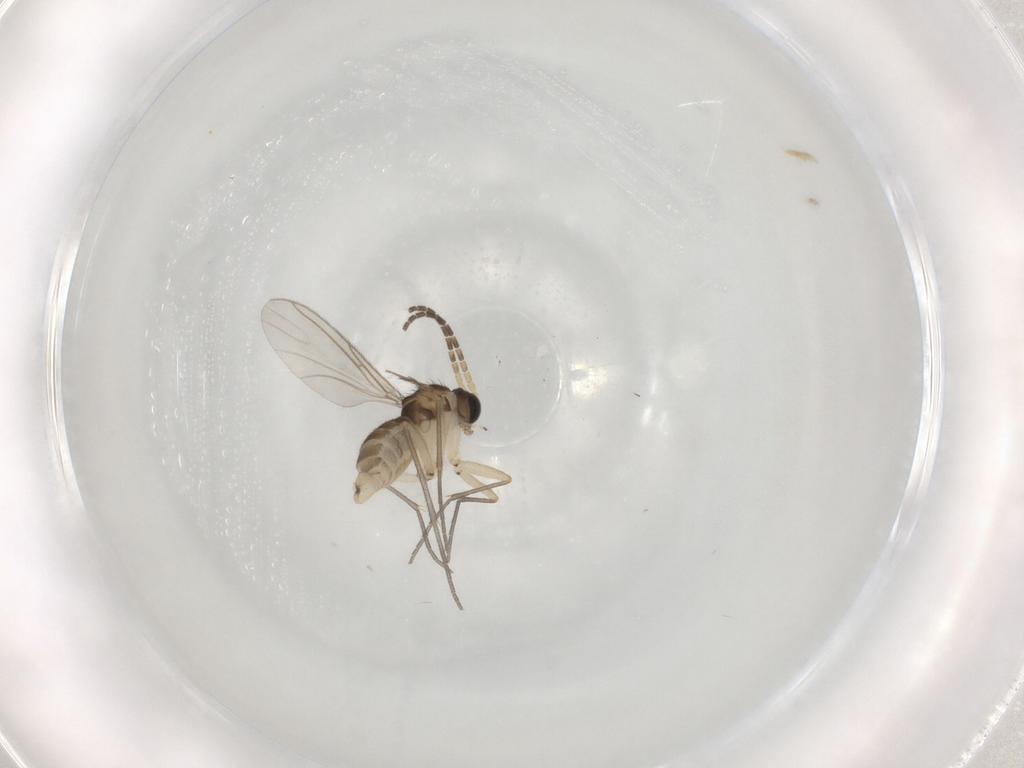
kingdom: Animalia
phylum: Arthropoda
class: Insecta
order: Diptera
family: Sciaridae
